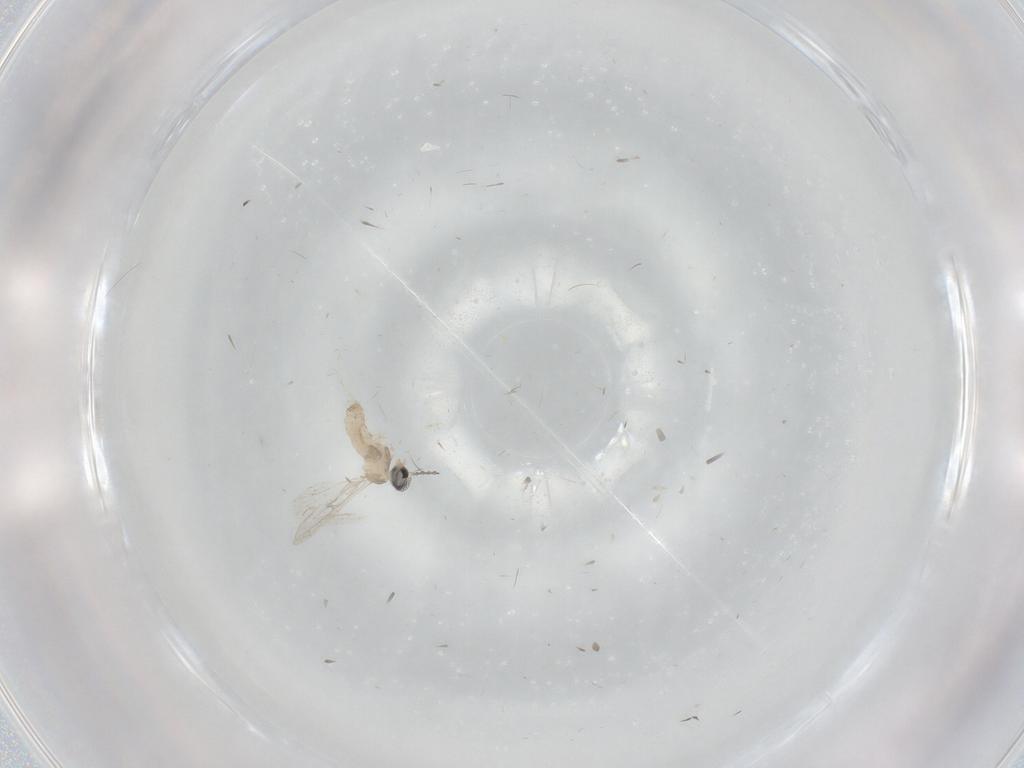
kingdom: Animalia
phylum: Arthropoda
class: Insecta
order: Diptera
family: Cecidomyiidae
